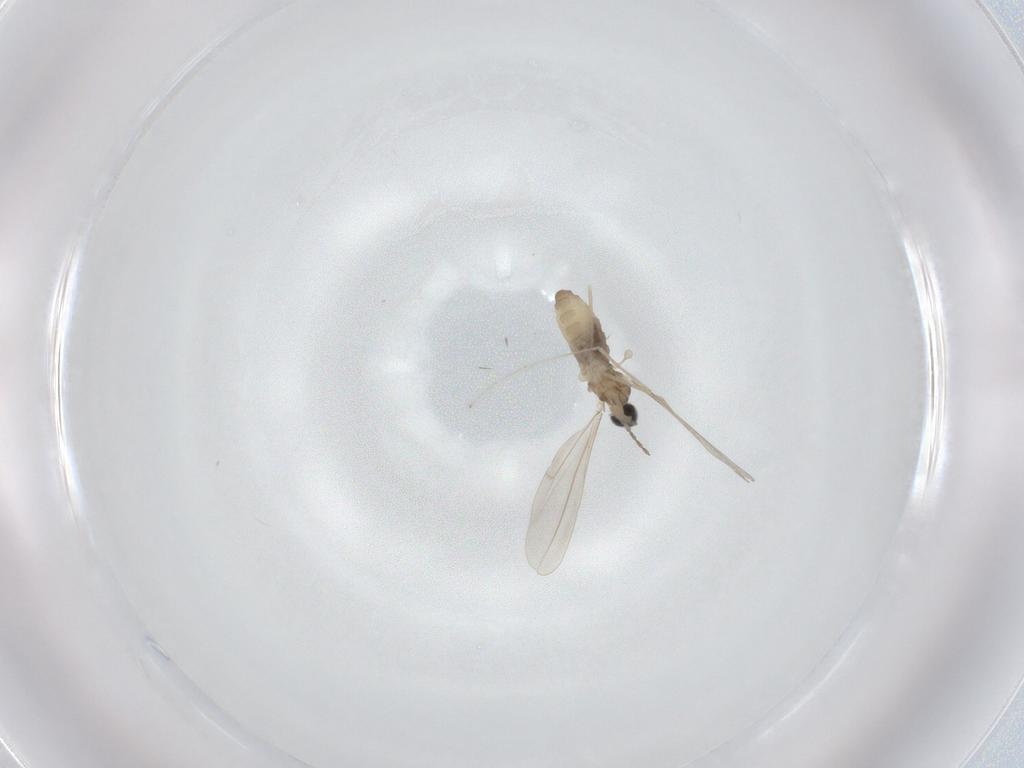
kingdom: Animalia
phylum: Arthropoda
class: Insecta
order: Diptera
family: Cecidomyiidae
